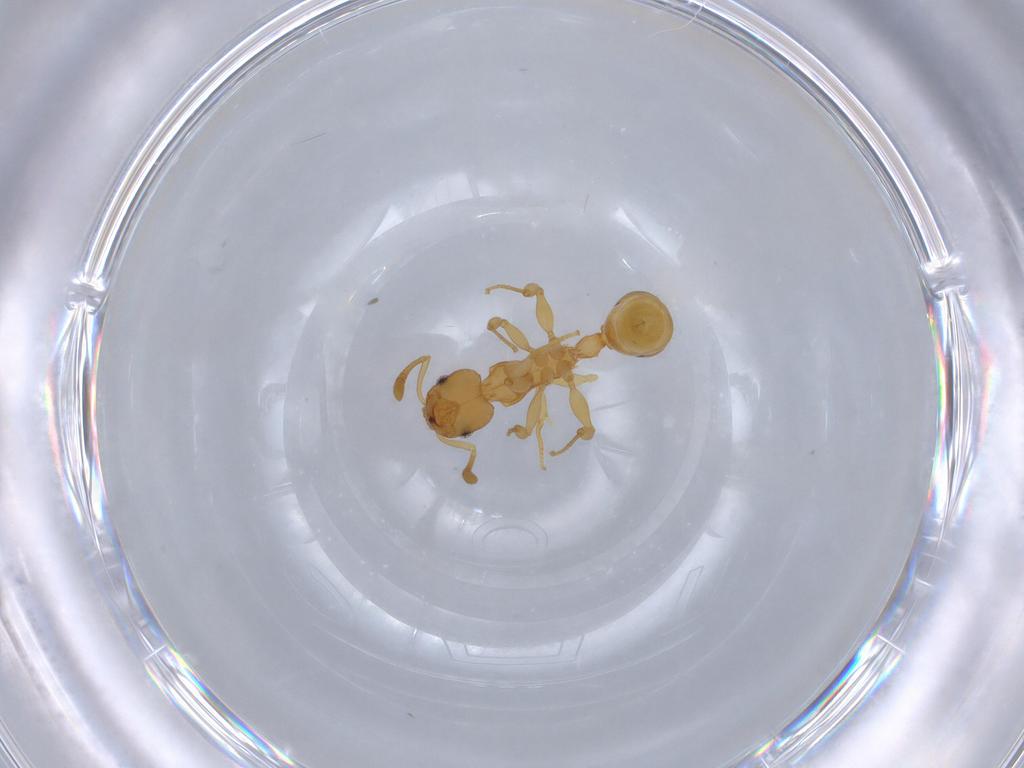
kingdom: Animalia
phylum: Arthropoda
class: Insecta
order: Hymenoptera
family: Formicidae
